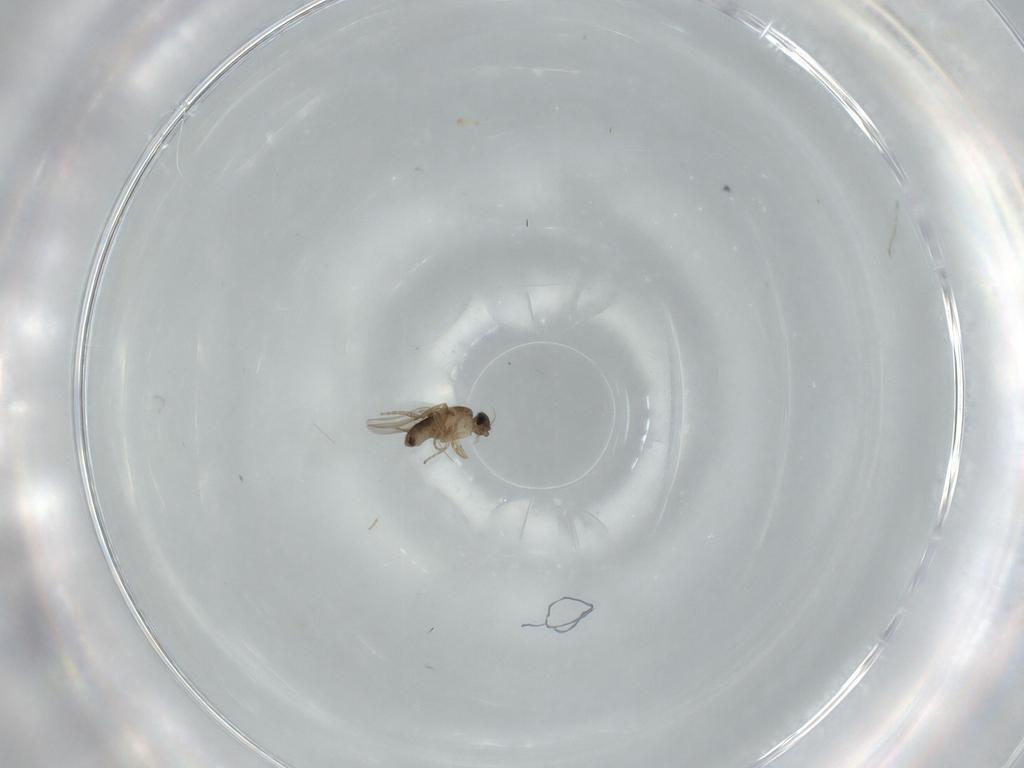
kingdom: Animalia
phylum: Arthropoda
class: Insecta
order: Diptera
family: Phoridae
